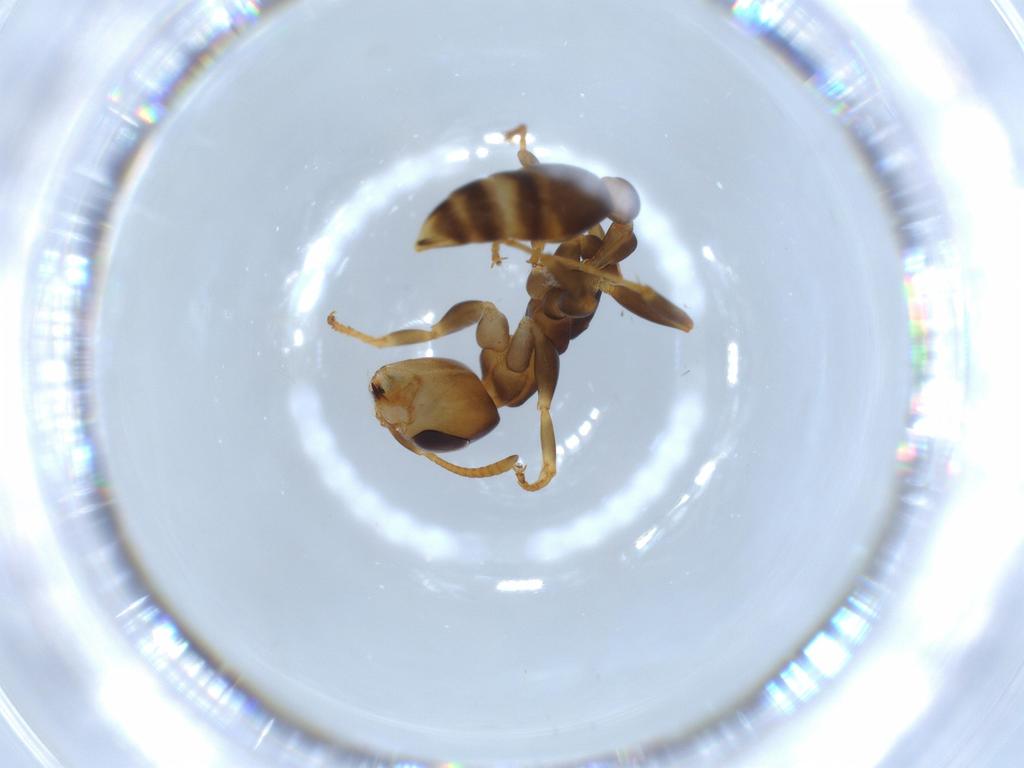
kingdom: Animalia
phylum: Arthropoda
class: Insecta
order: Hymenoptera
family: Formicidae
